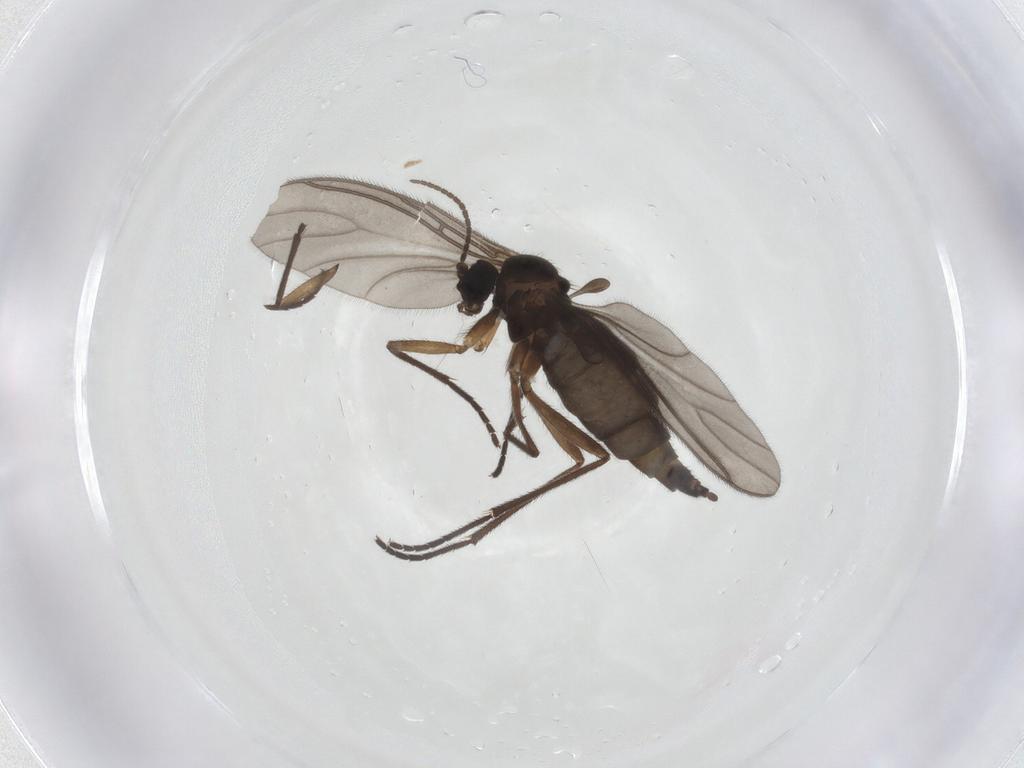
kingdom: Animalia
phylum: Arthropoda
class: Insecta
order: Diptera
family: Sciaridae
